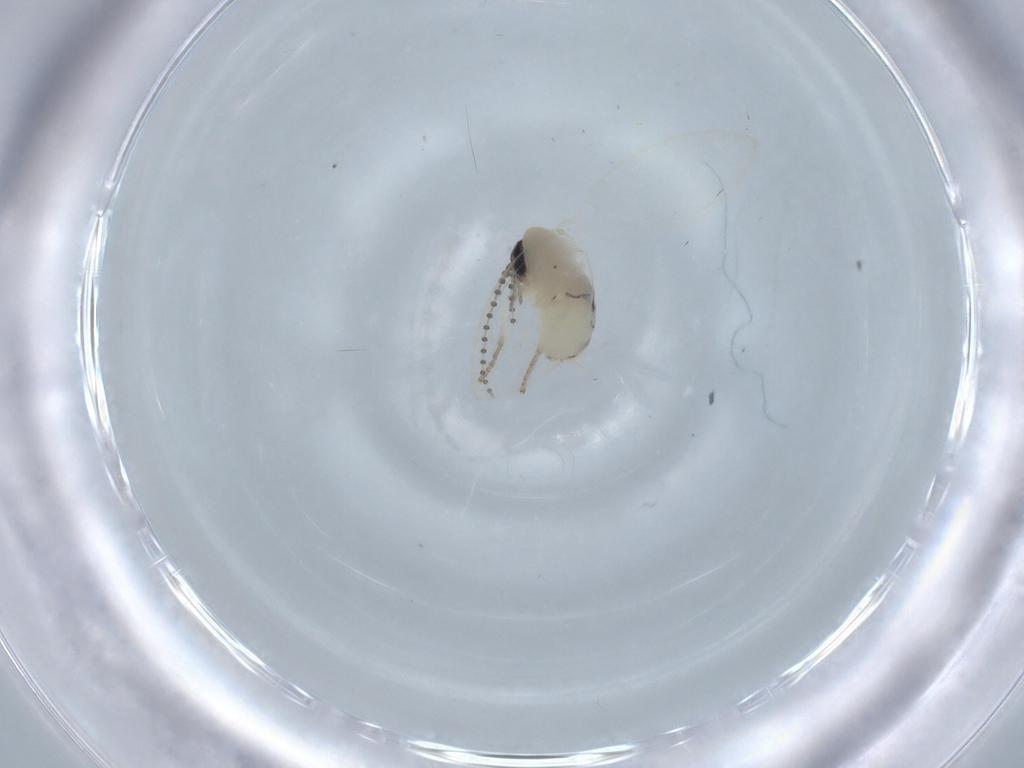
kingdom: Animalia
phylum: Arthropoda
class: Insecta
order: Diptera
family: Psychodidae
